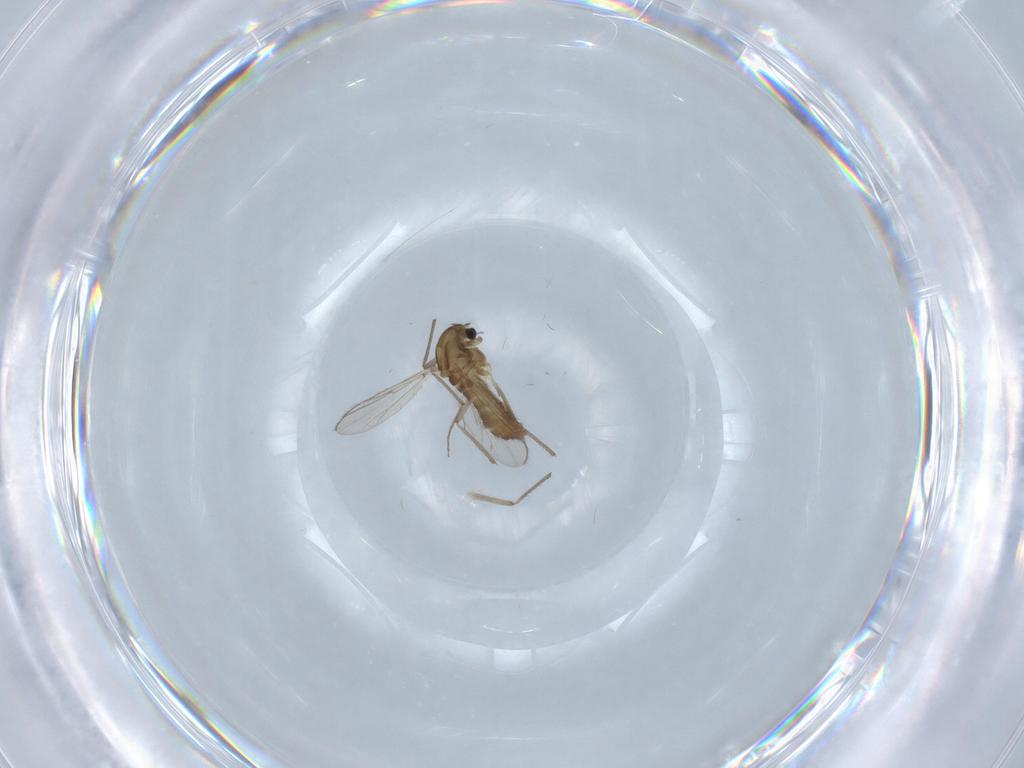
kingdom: Animalia
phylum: Arthropoda
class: Insecta
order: Diptera
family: Chironomidae
